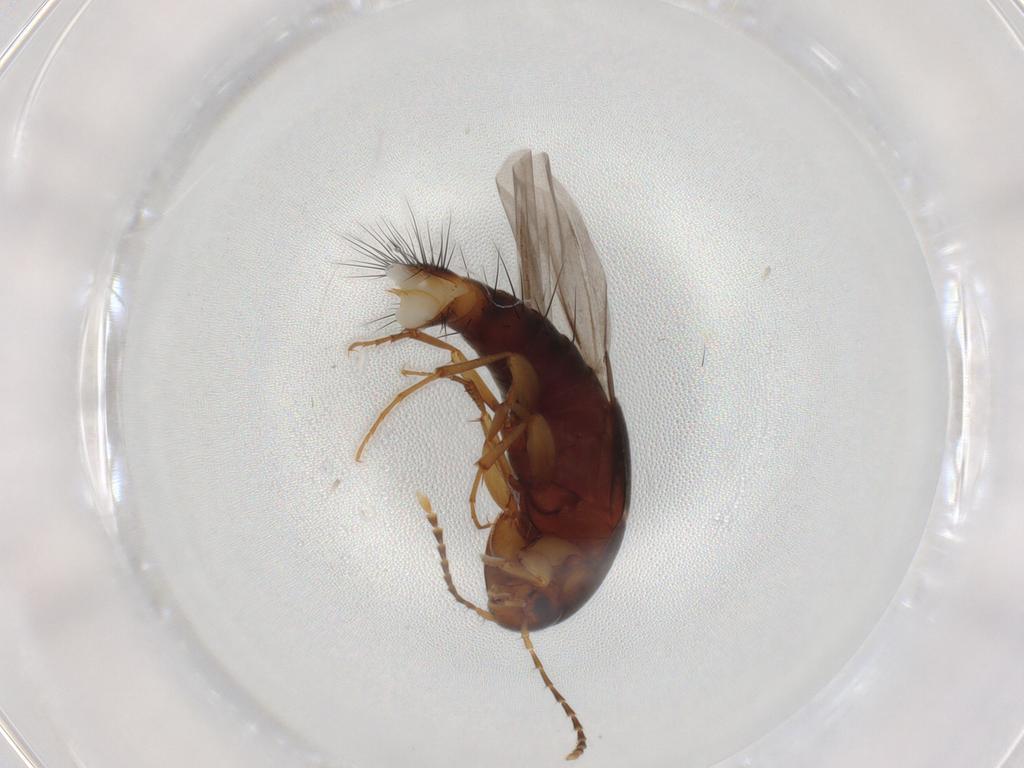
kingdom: Animalia
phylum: Arthropoda
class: Insecta
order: Coleoptera
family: Staphylinidae
